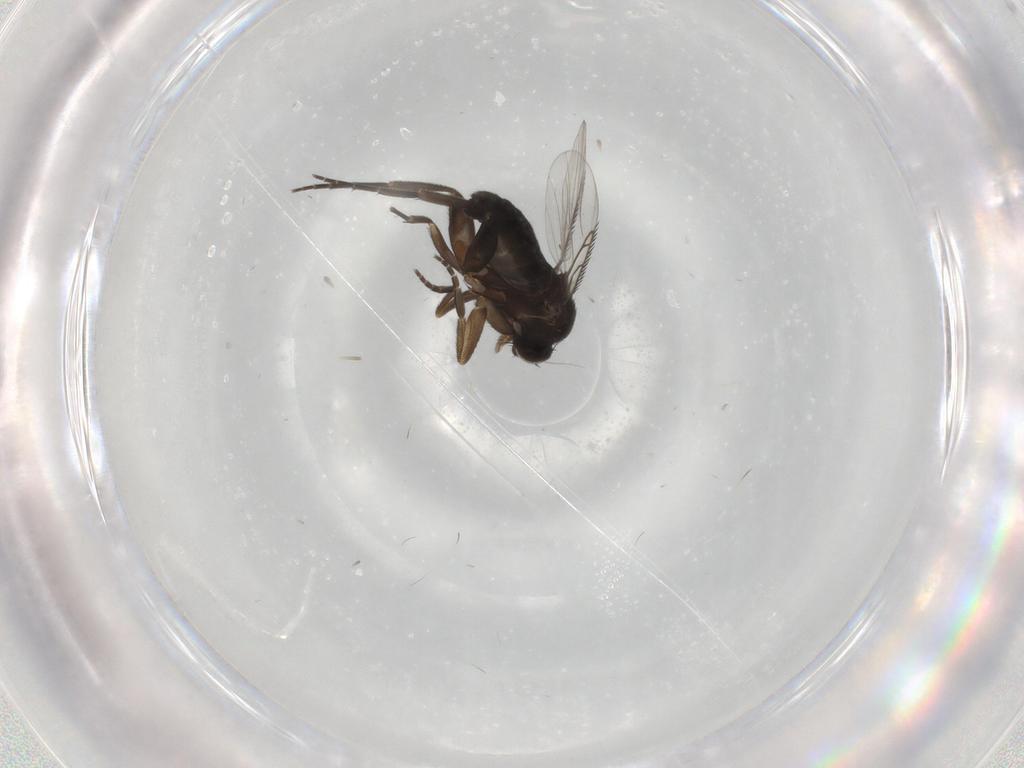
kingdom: Animalia
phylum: Arthropoda
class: Insecta
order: Diptera
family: Phoridae
